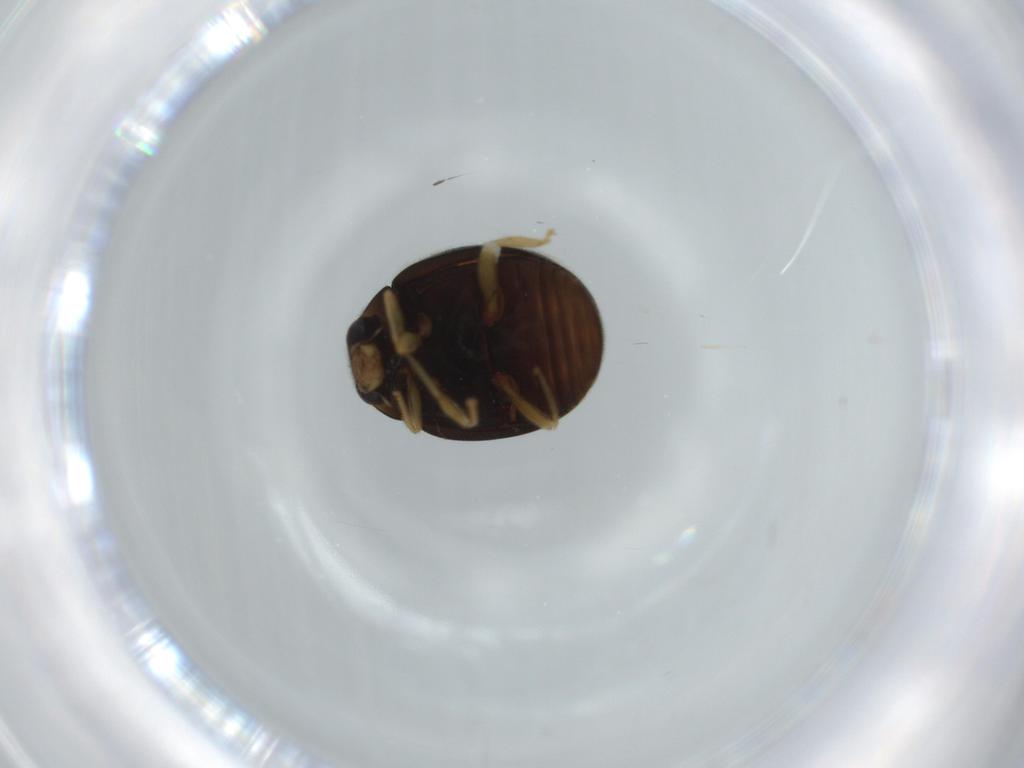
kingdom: Animalia
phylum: Arthropoda
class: Insecta
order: Coleoptera
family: Coccinellidae
